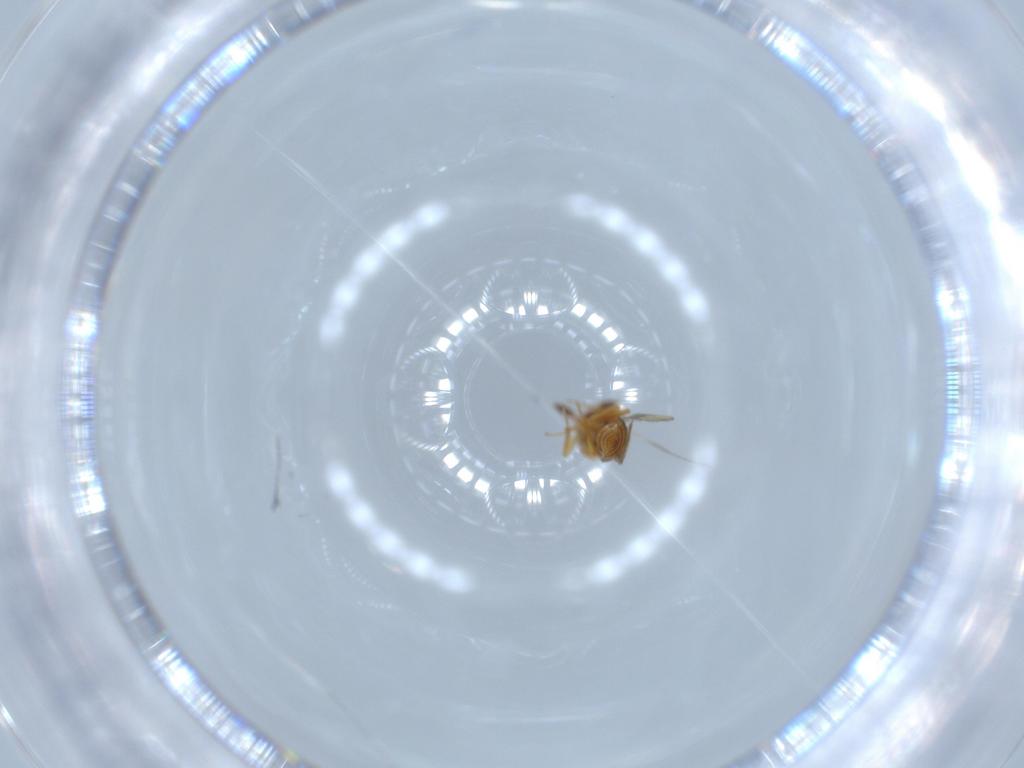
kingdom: Animalia
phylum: Arthropoda
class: Insecta
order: Hymenoptera
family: Scelionidae
